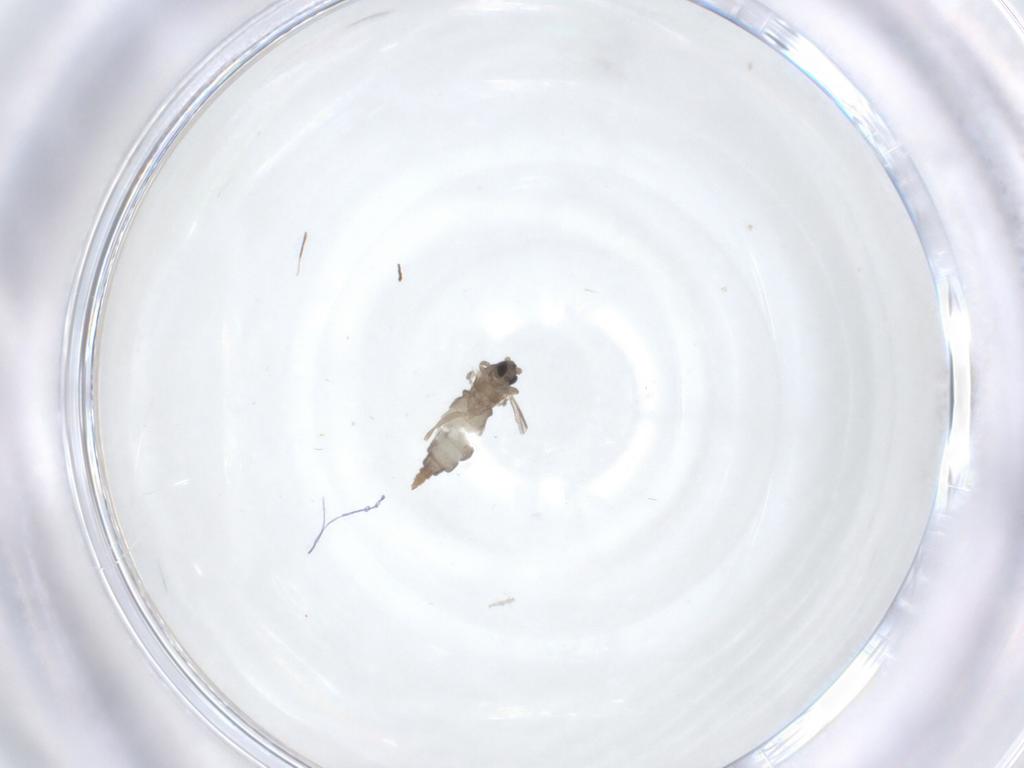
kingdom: Animalia
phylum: Arthropoda
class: Insecta
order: Diptera
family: Cecidomyiidae
